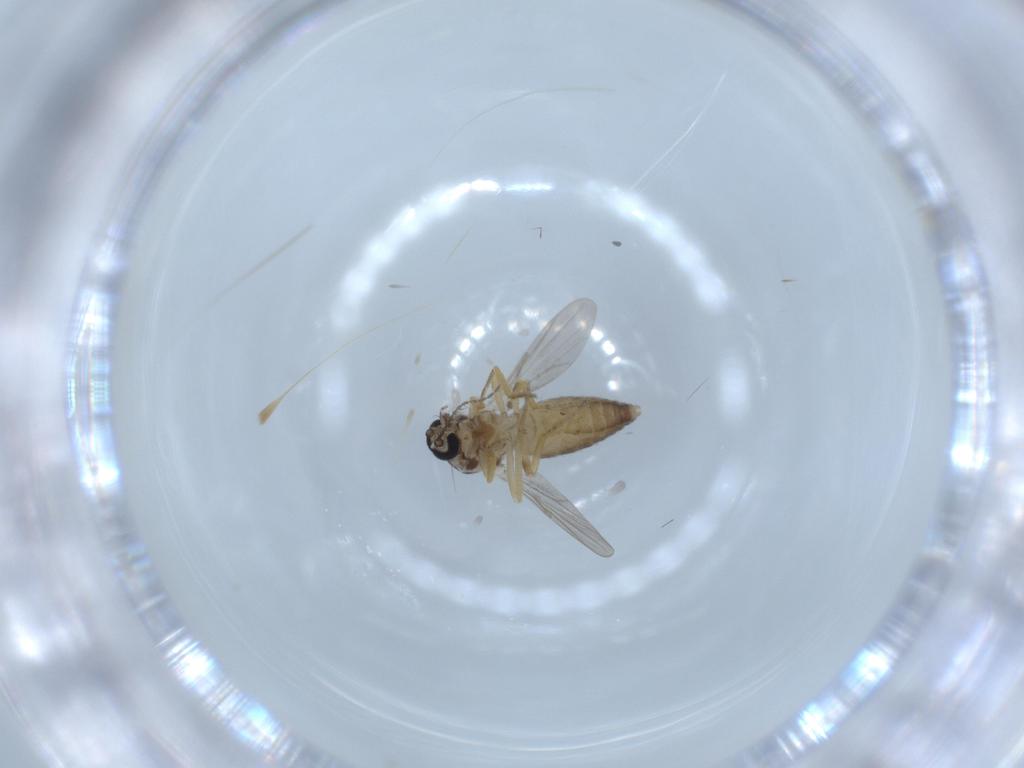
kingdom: Animalia
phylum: Arthropoda
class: Insecta
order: Diptera
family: Ceratopogonidae
